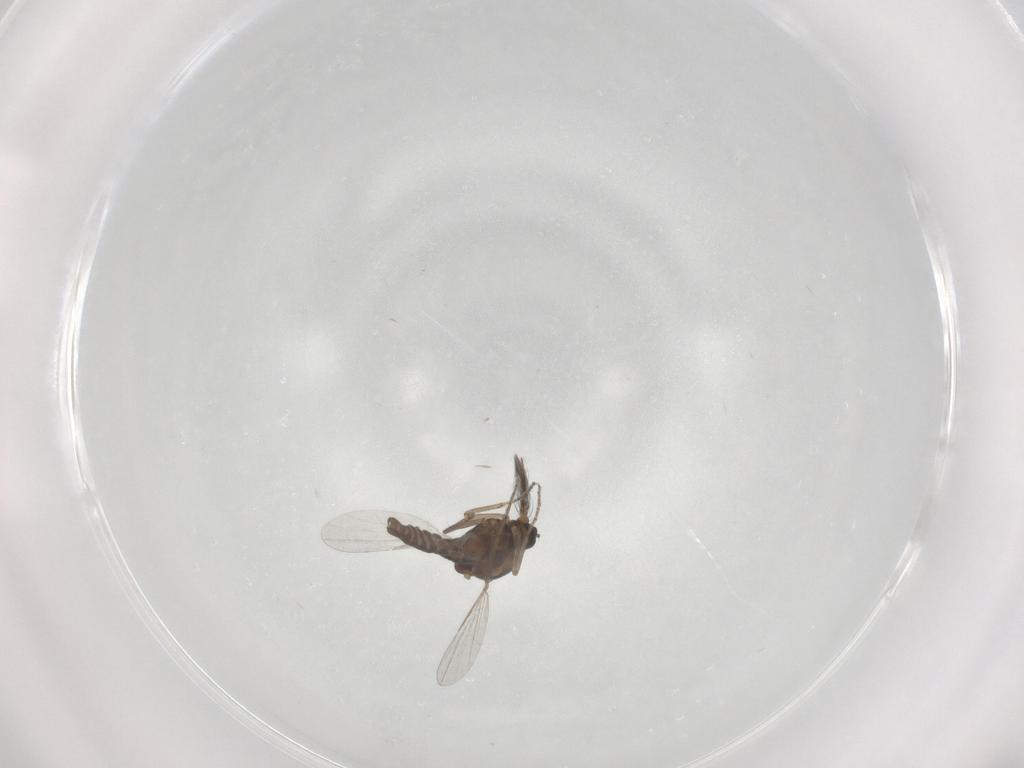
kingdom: Animalia
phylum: Arthropoda
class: Insecta
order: Diptera
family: Ceratopogonidae
